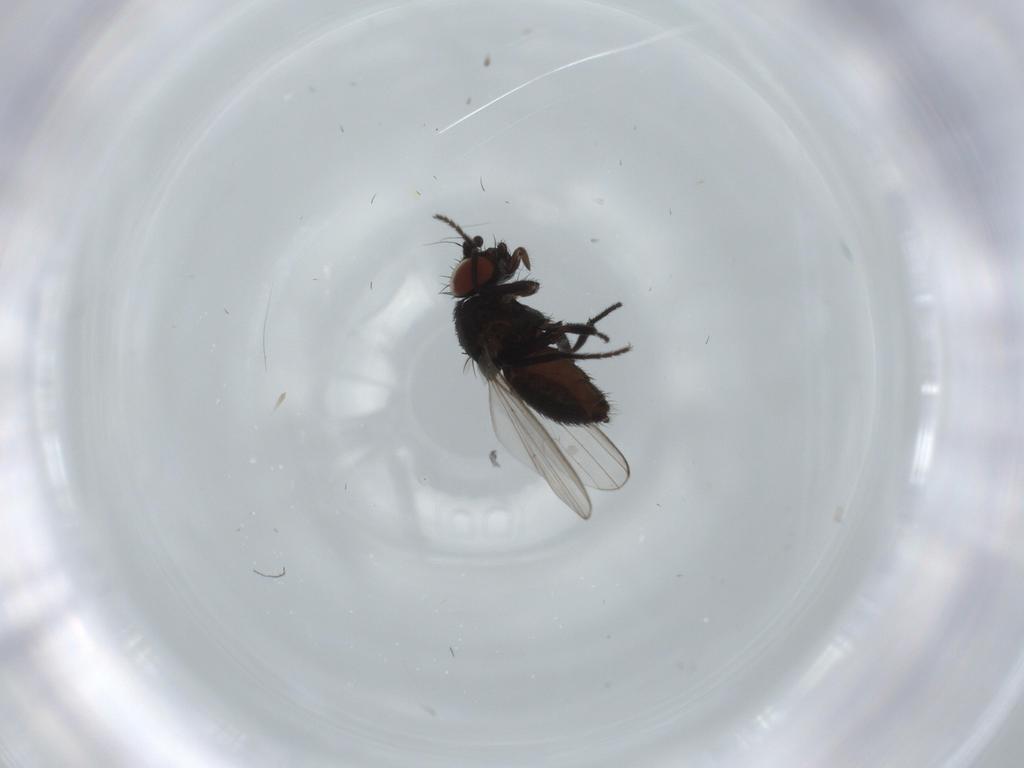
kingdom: Animalia
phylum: Arthropoda
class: Insecta
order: Diptera
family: Milichiidae
